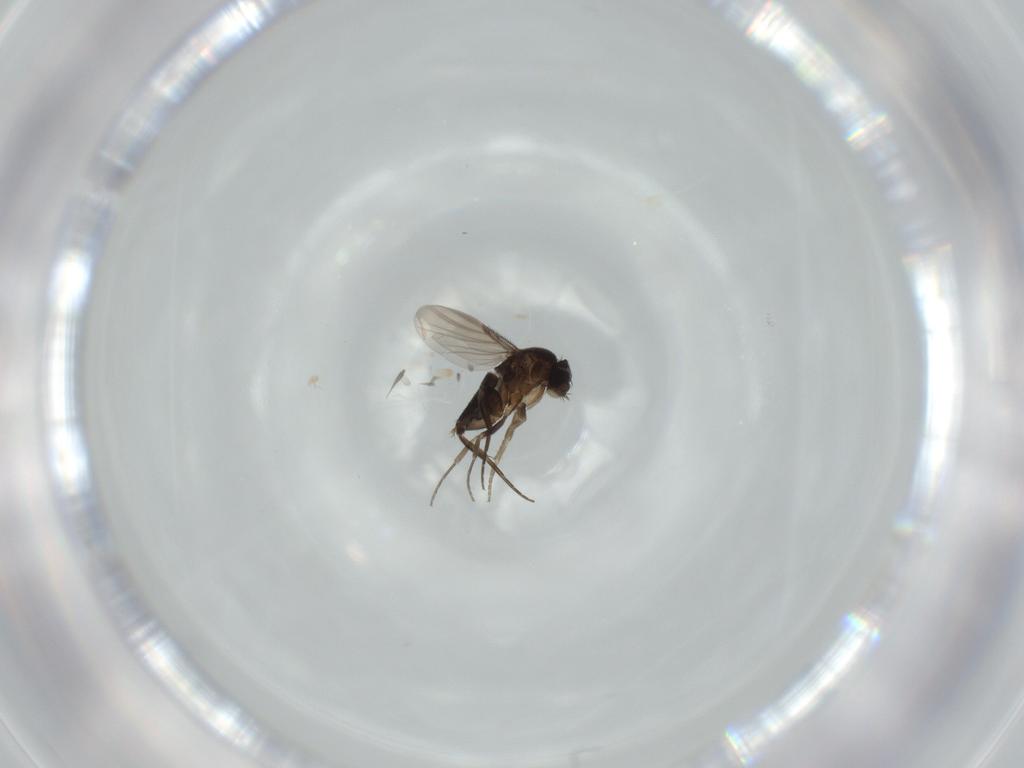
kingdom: Animalia
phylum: Arthropoda
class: Insecta
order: Diptera
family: Phoridae
